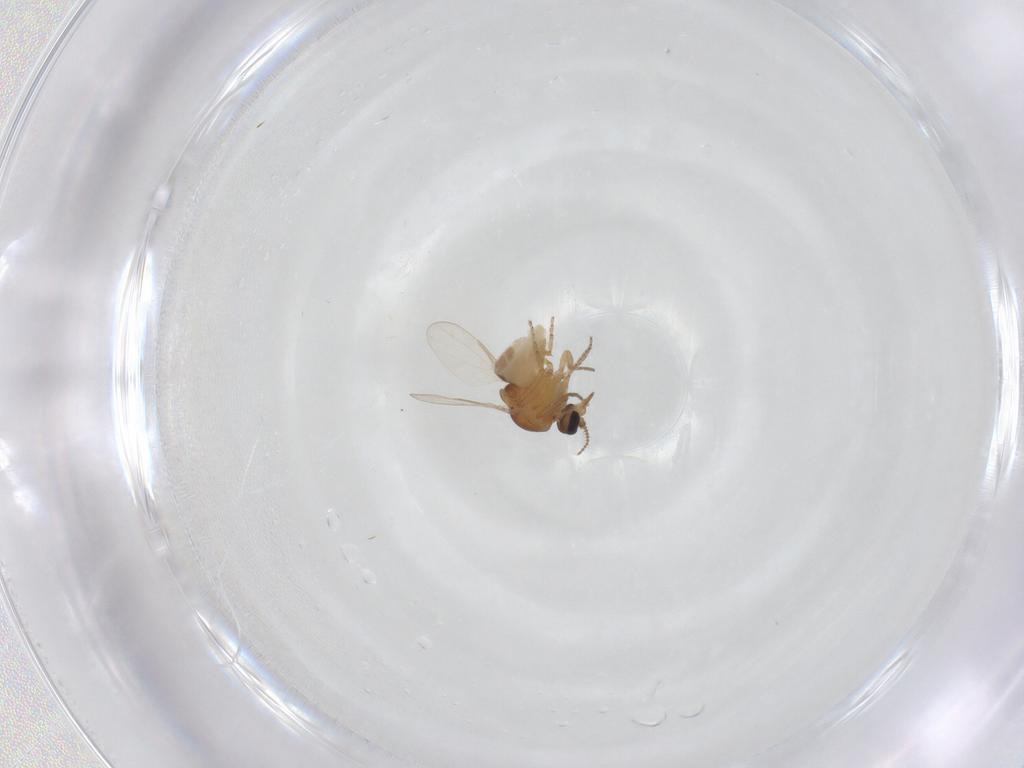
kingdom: Animalia
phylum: Arthropoda
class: Insecta
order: Diptera
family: Ceratopogonidae
